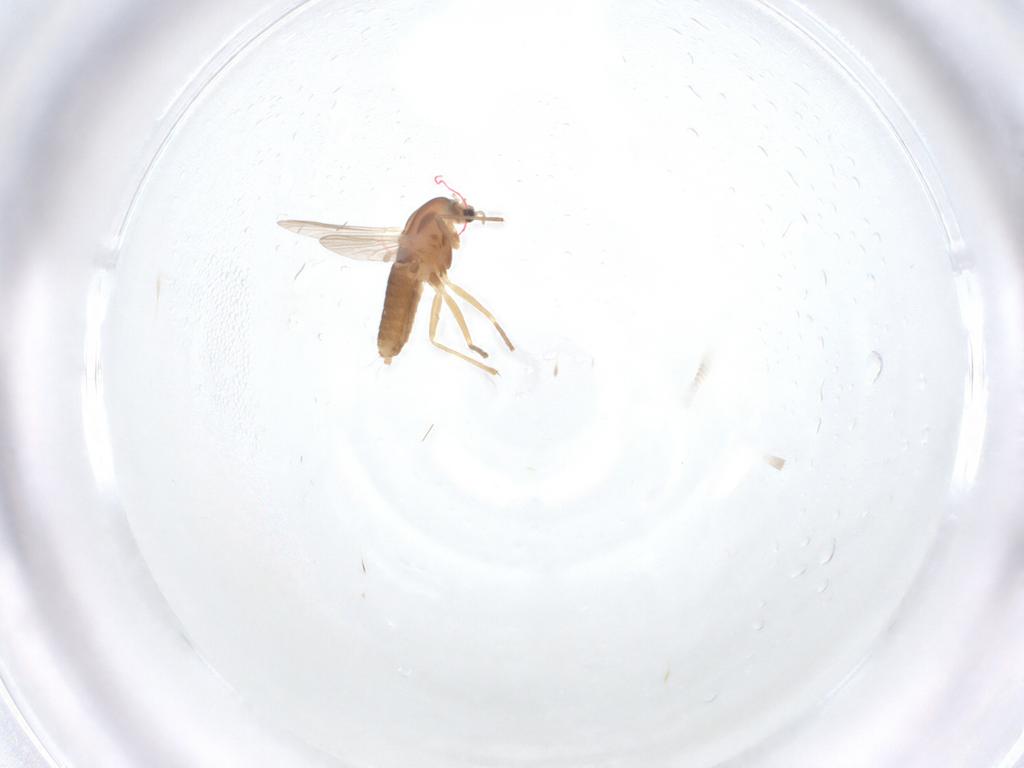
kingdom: Animalia
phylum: Arthropoda
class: Insecta
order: Diptera
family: Chironomidae
